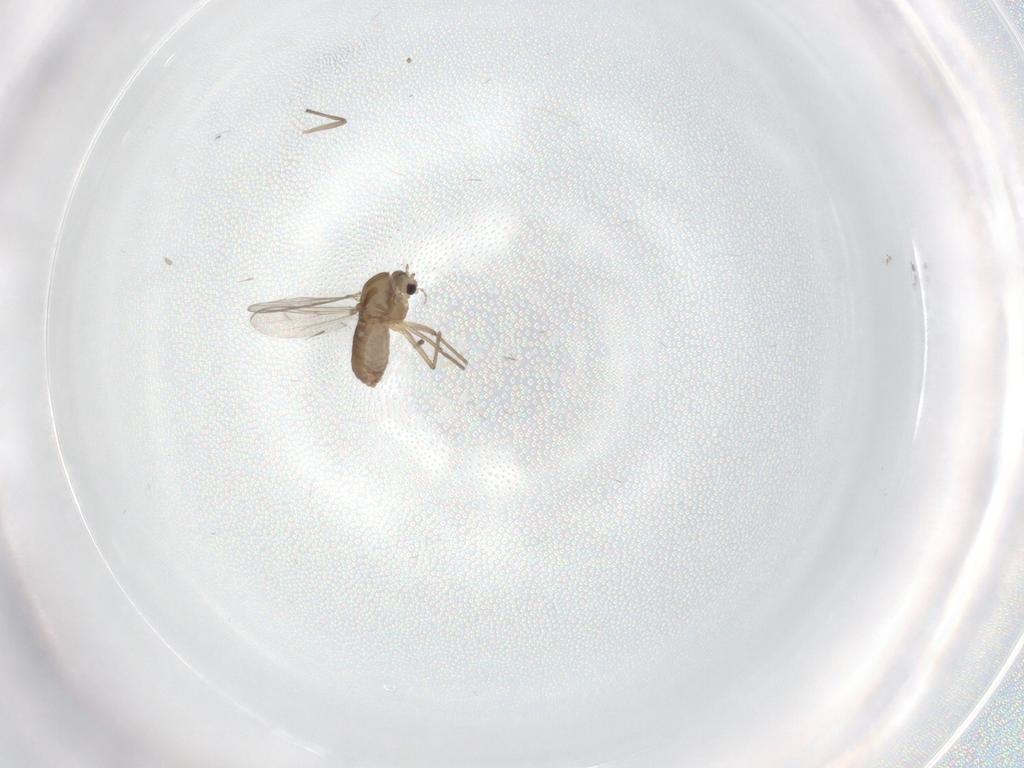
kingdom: Animalia
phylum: Arthropoda
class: Insecta
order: Diptera
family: Chironomidae
